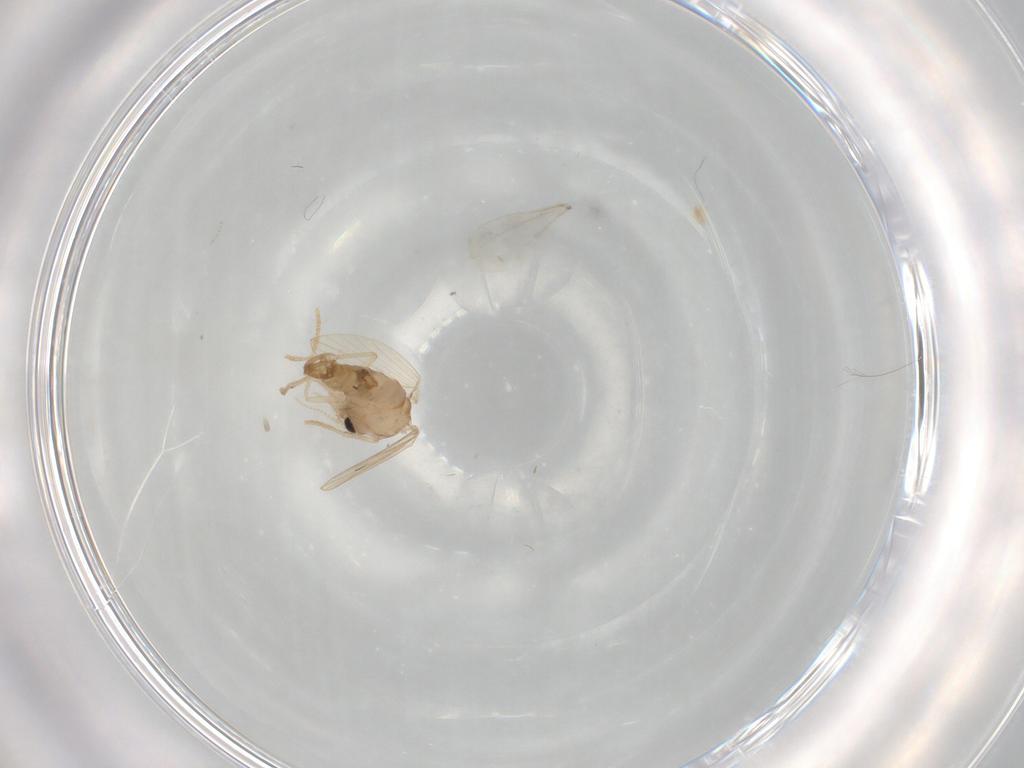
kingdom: Animalia
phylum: Arthropoda
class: Insecta
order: Diptera
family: Psychodidae
